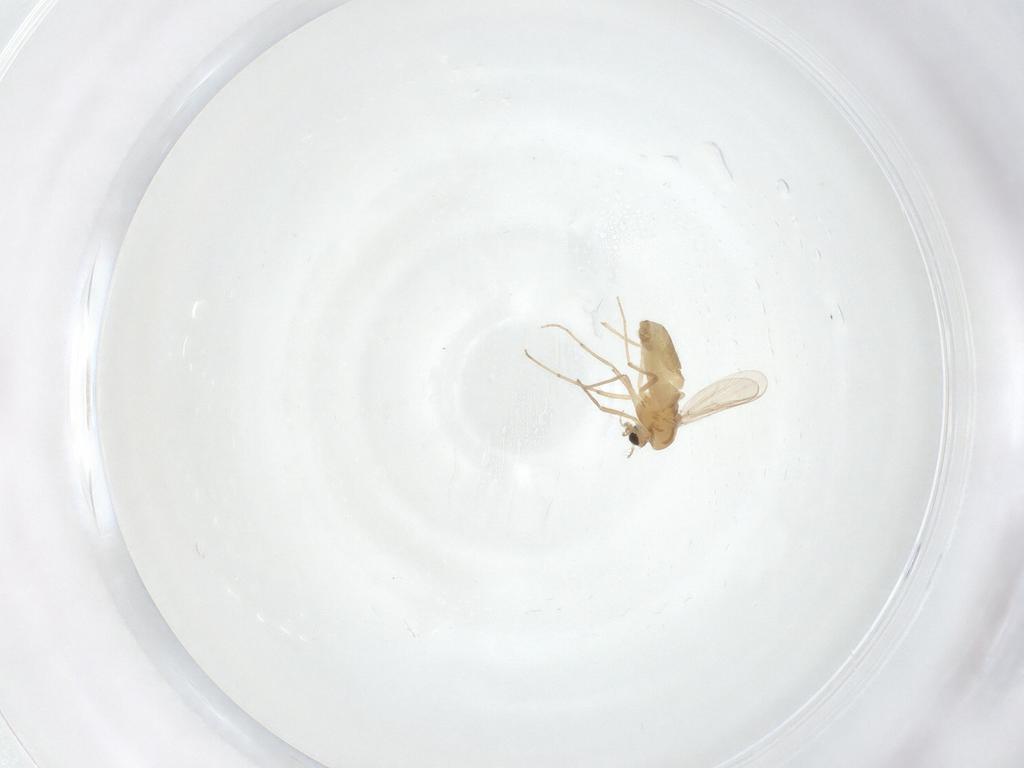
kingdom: Animalia
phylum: Arthropoda
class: Insecta
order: Diptera
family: Chironomidae
